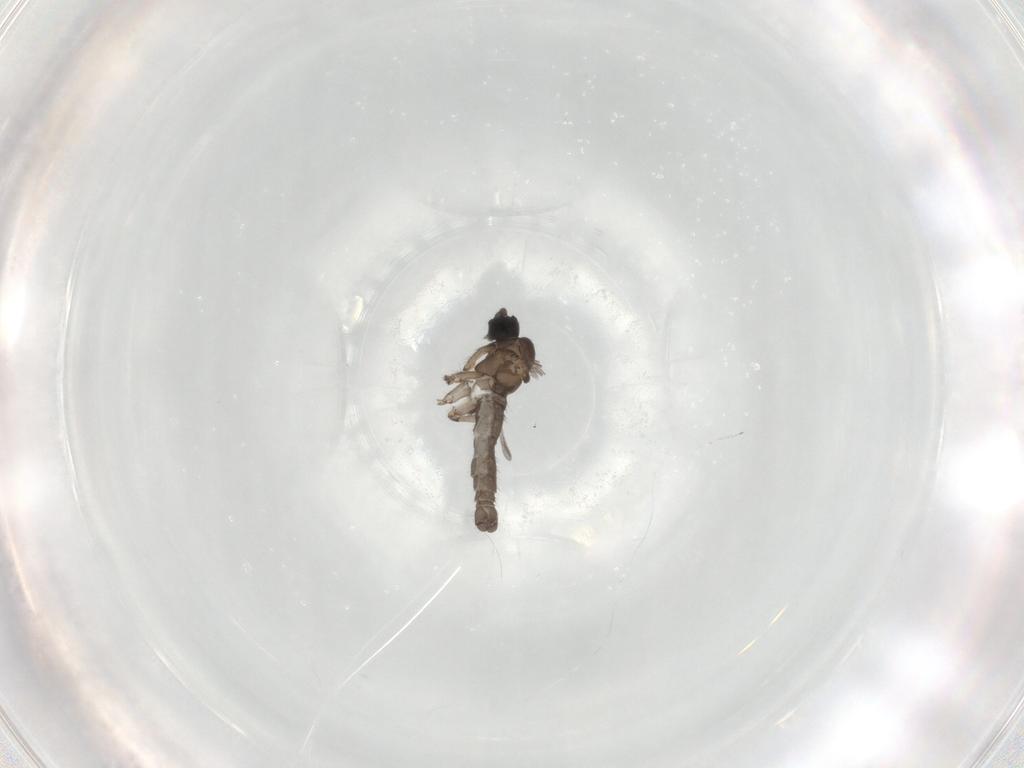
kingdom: Animalia
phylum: Arthropoda
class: Insecta
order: Diptera
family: Sciaridae
